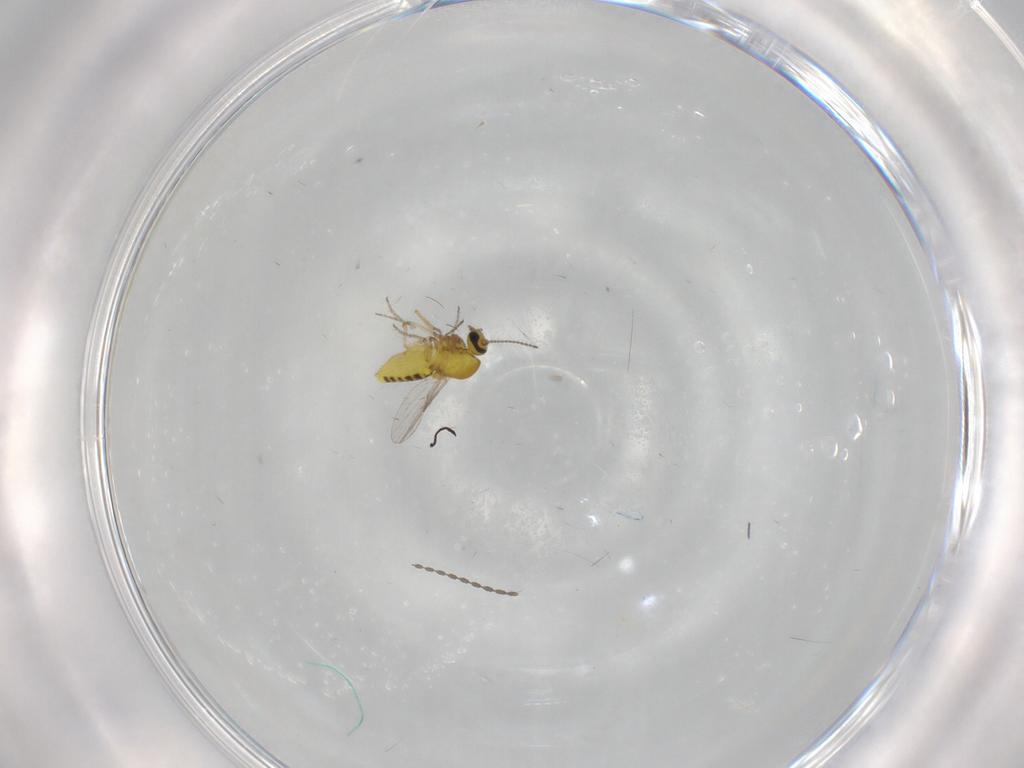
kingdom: Animalia
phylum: Arthropoda
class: Insecta
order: Diptera
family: Ceratopogonidae
